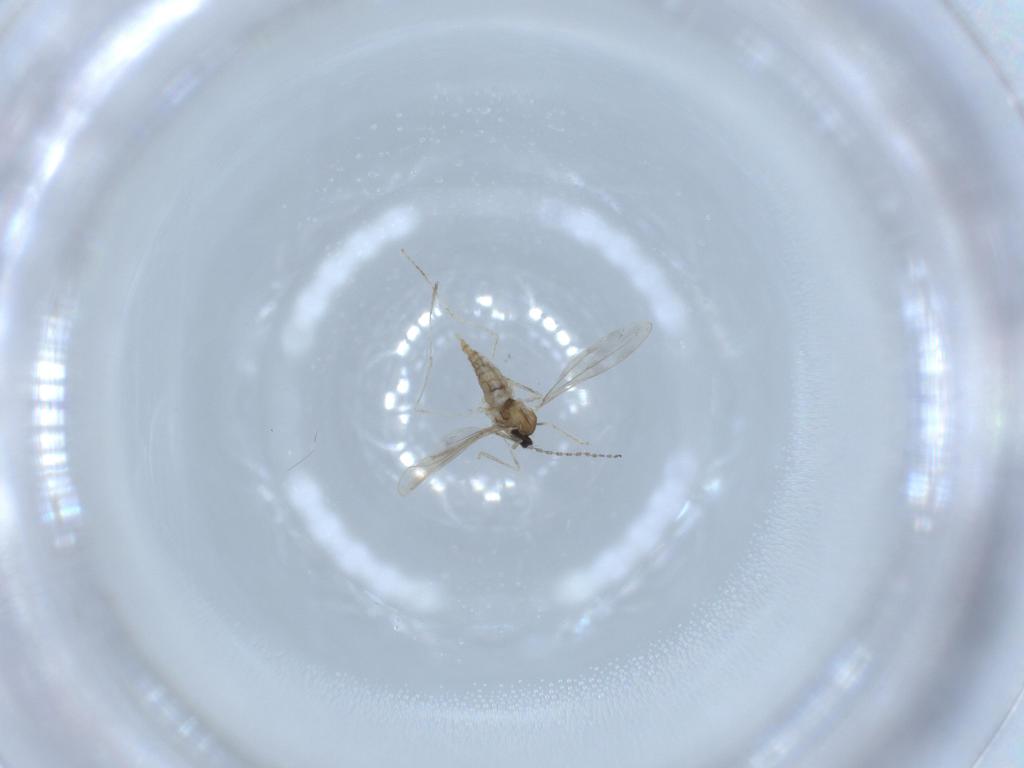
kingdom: Animalia
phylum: Arthropoda
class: Insecta
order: Diptera
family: Cecidomyiidae
